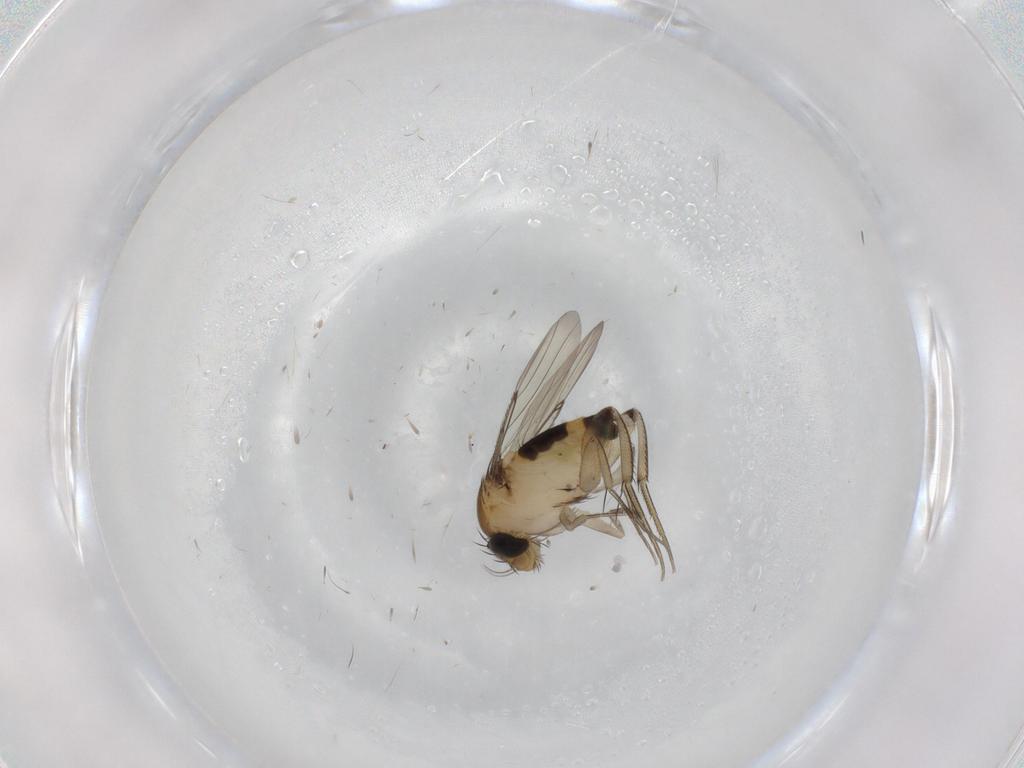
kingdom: Animalia
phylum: Arthropoda
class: Insecta
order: Diptera
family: Phoridae
